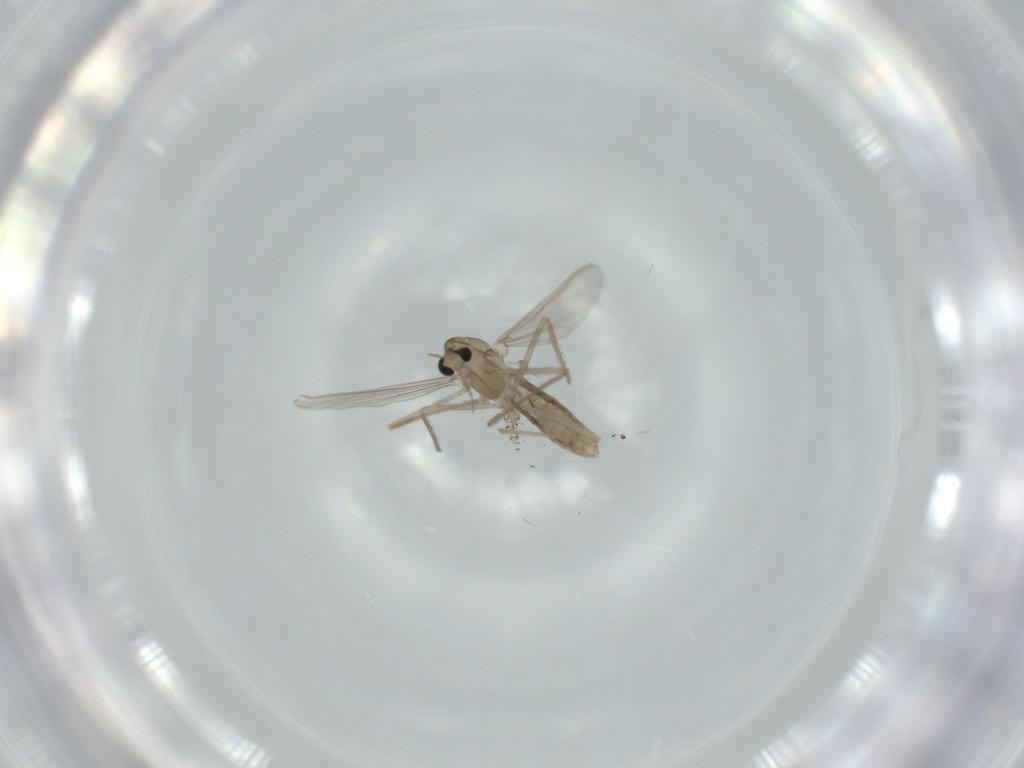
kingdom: Animalia
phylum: Arthropoda
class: Insecta
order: Diptera
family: Chironomidae
